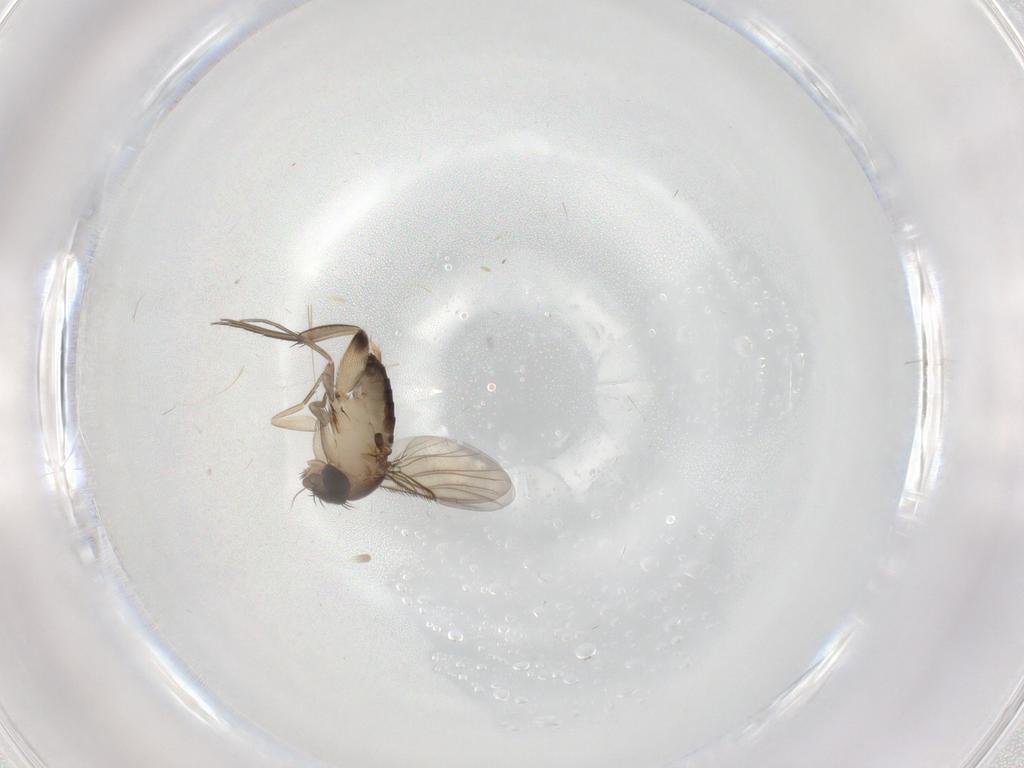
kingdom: Animalia
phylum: Arthropoda
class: Insecta
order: Diptera
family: Phoridae
